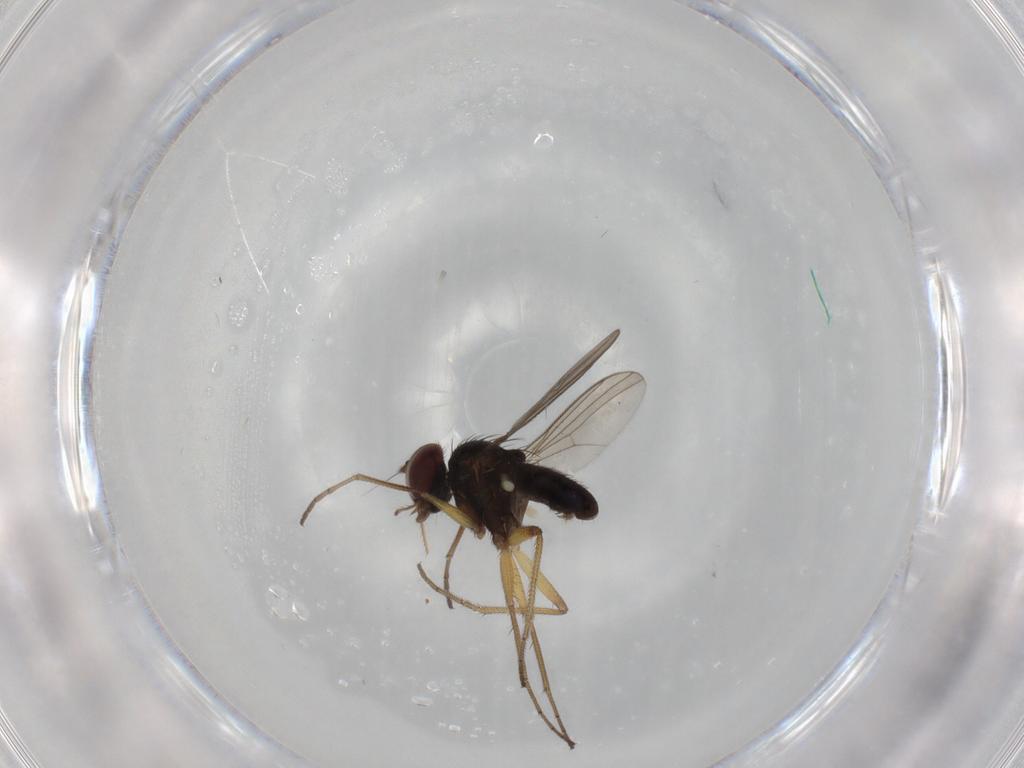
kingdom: Animalia
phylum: Arthropoda
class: Insecta
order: Diptera
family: Dolichopodidae
